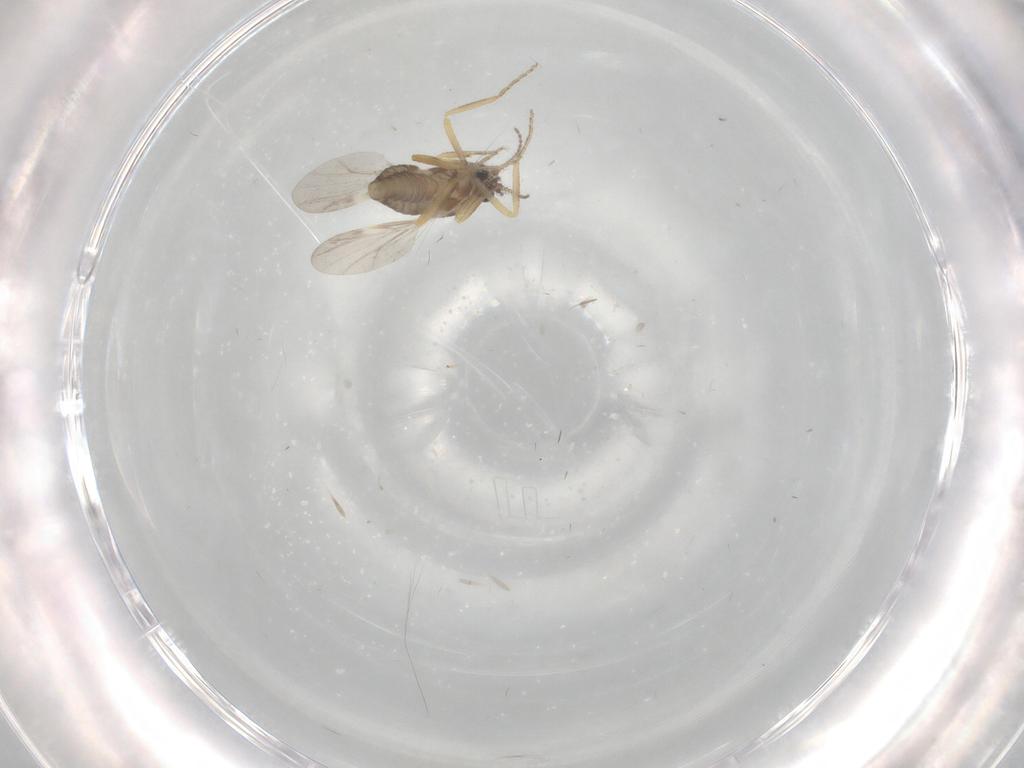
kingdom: Animalia
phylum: Arthropoda
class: Insecta
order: Diptera
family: Ceratopogonidae
